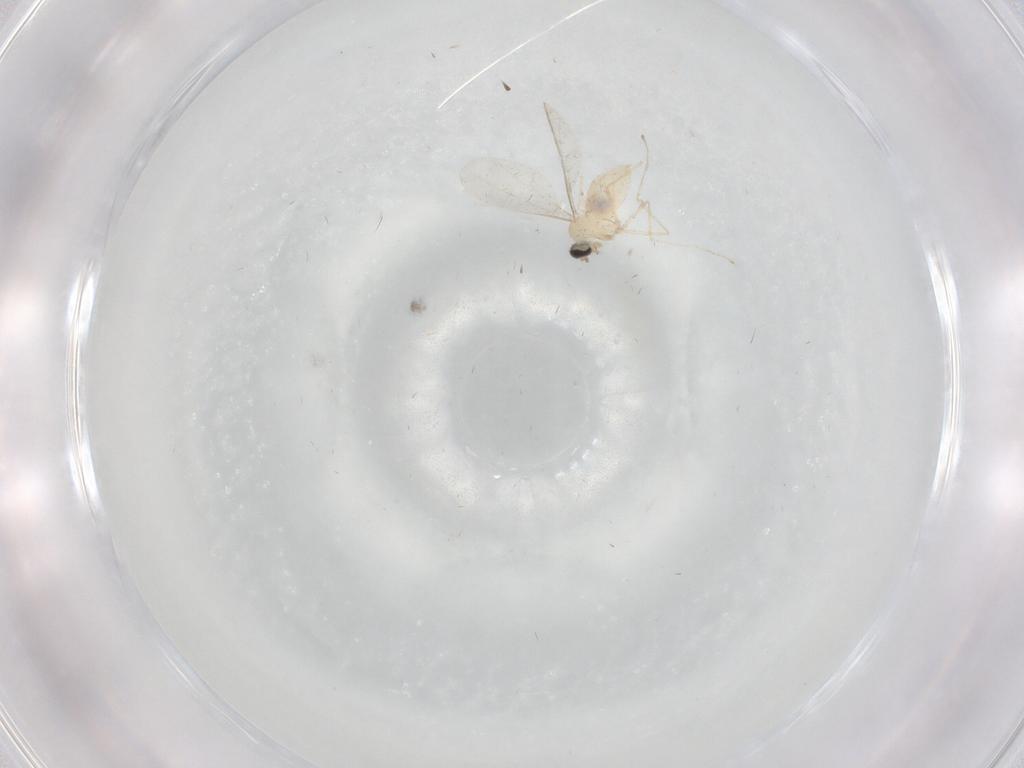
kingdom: Animalia
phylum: Arthropoda
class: Insecta
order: Diptera
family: Cecidomyiidae
